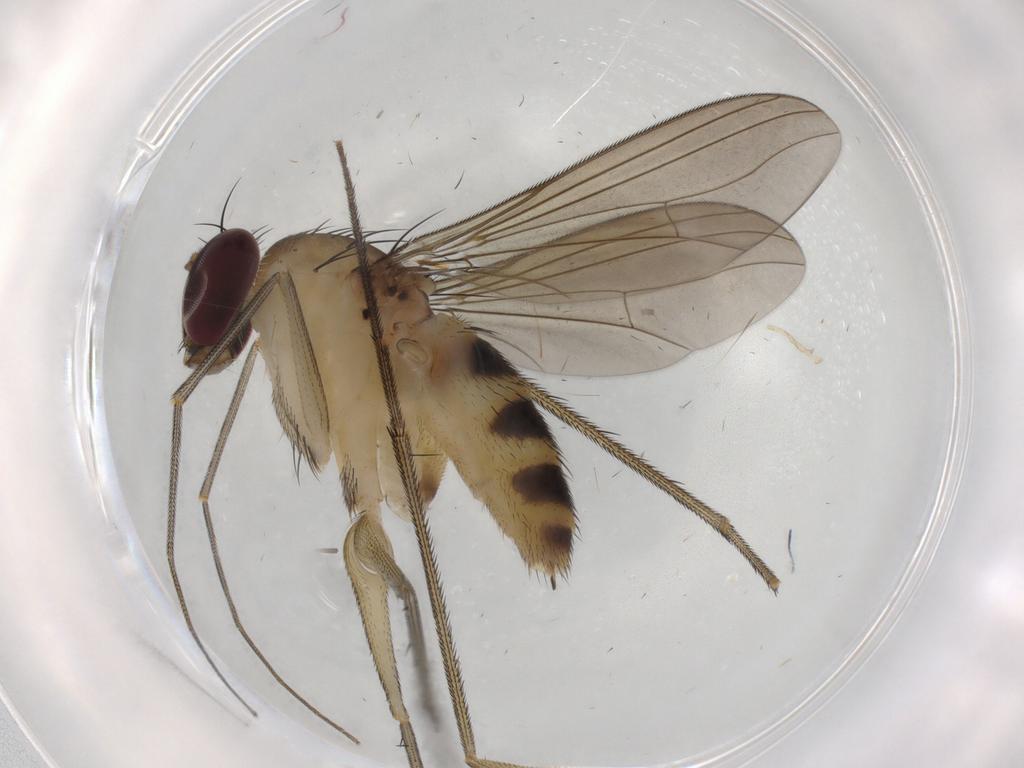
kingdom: Animalia
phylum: Arthropoda
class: Insecta
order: Diptera
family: Dolichopodidae
